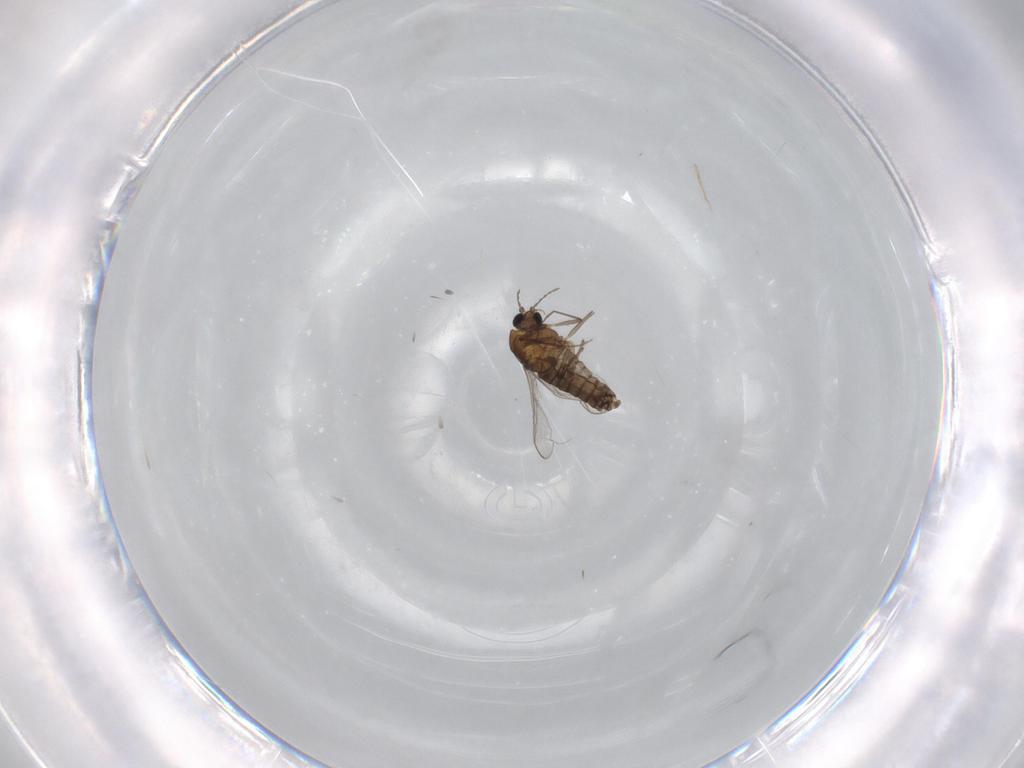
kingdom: Animalia
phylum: Arthropoda
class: Insecta
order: Diptera
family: Chironomidae
